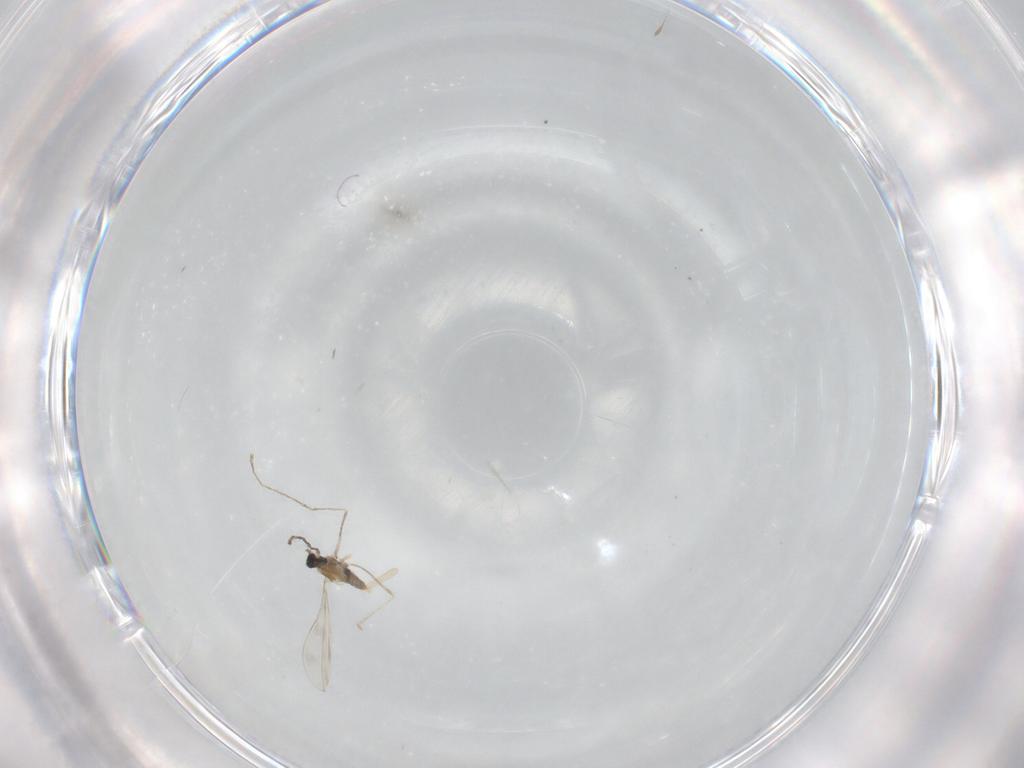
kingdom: Animalia
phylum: Arthropoda
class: Insecta
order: Diptera
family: Cecidomyiidae
